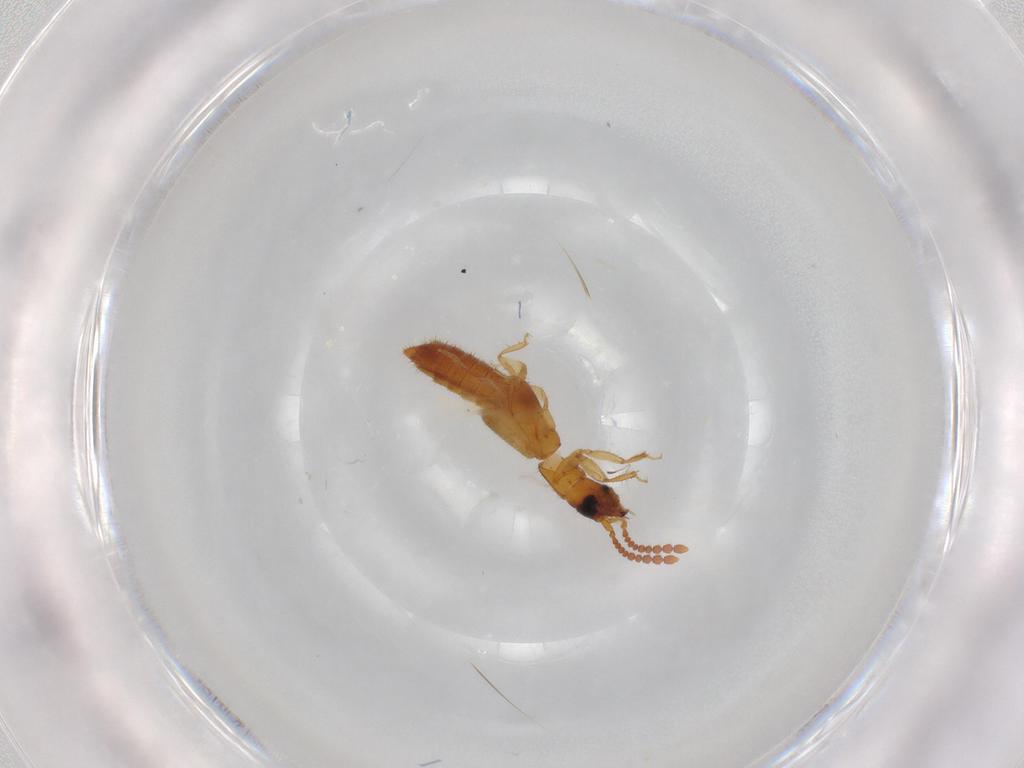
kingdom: Animalia
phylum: Arthropoda
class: Insecta
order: Coleoptera
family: Staphylinidae
